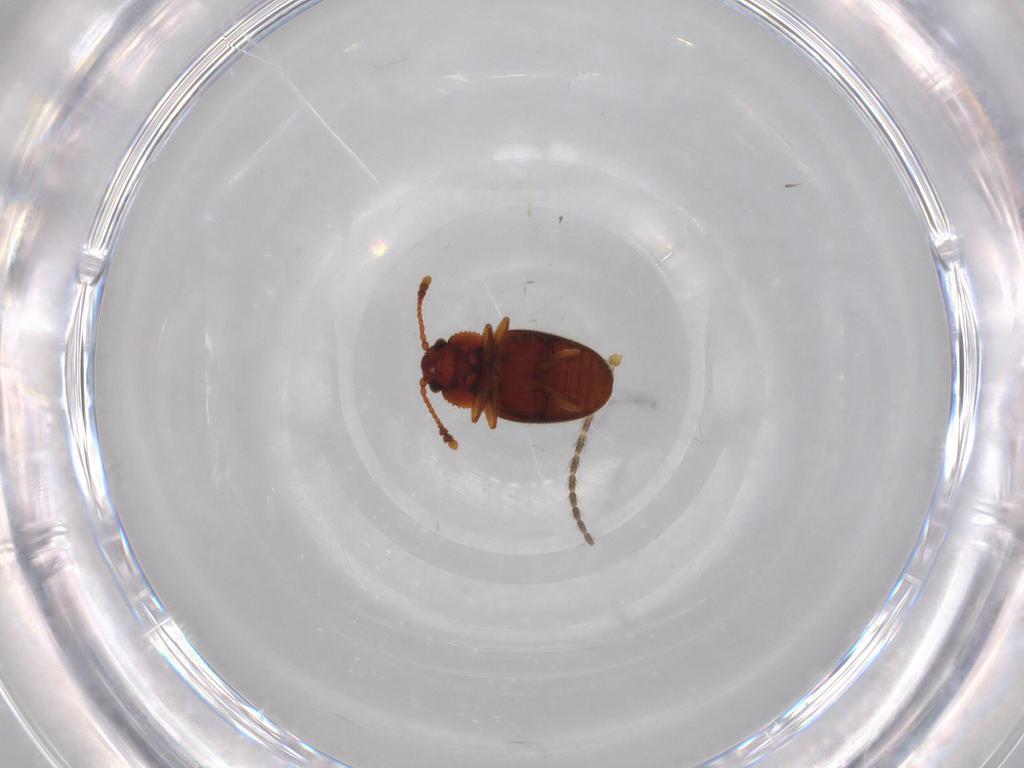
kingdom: Animalia
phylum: Arthropoda
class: Insecta
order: Coleoptera
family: Cryptophagidae
